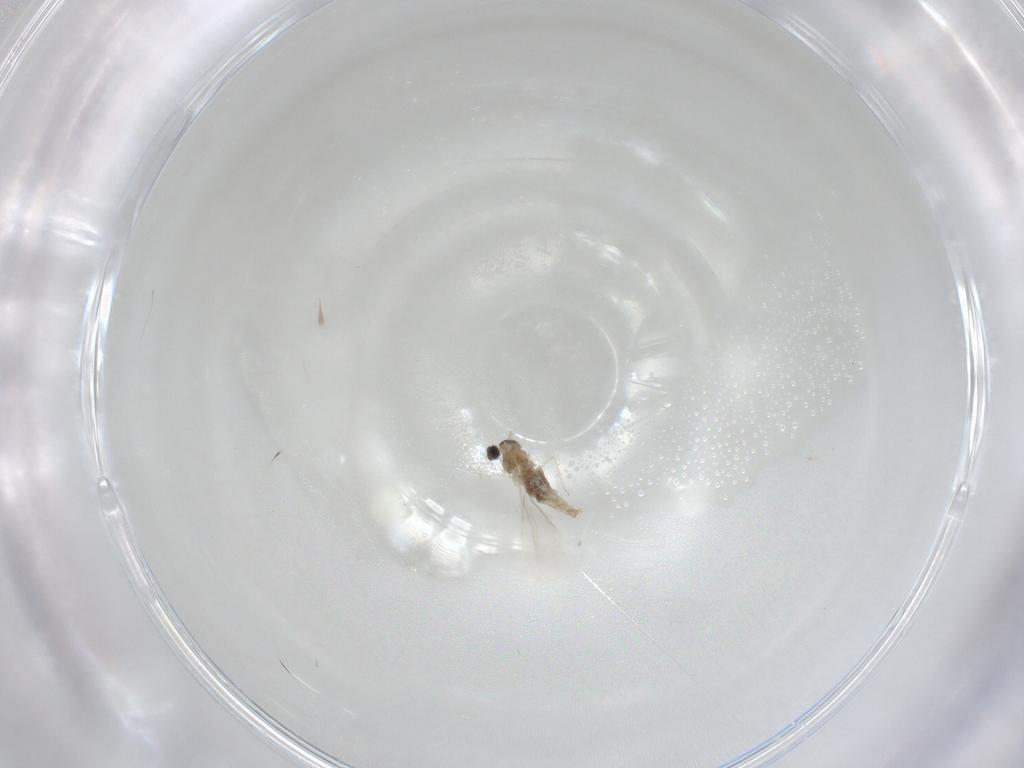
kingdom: Animalia
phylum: Arthropoda
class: Insecta
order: Diptera
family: Cecidomyiidae
